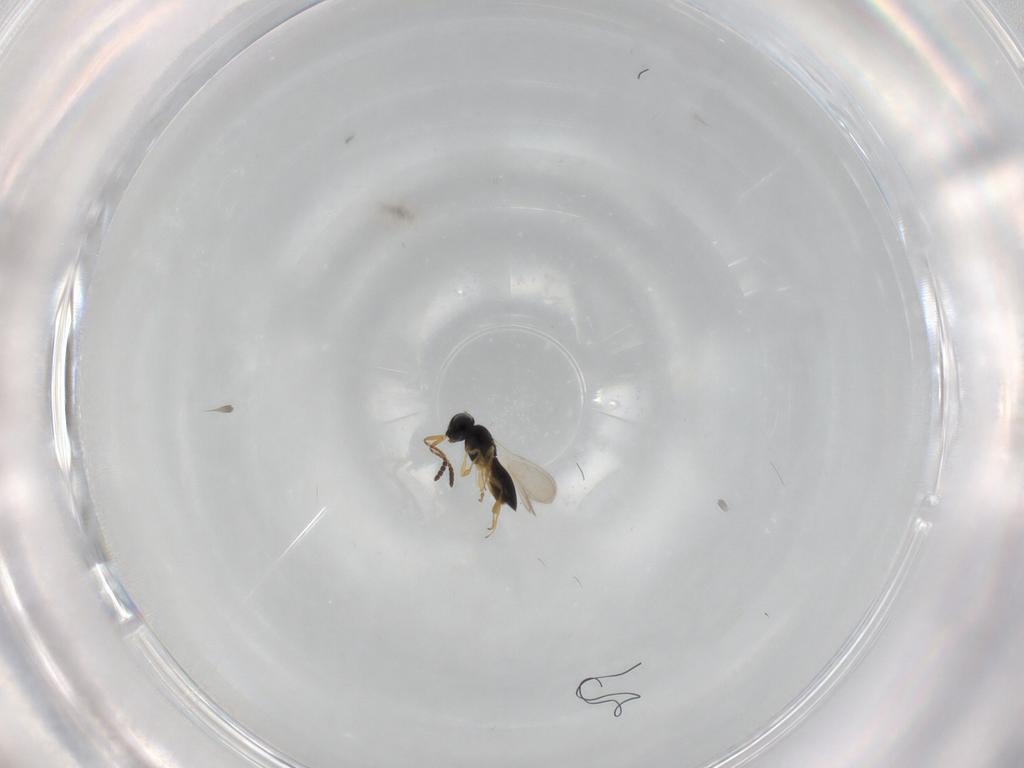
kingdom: Animalia
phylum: Arthropoda
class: Insecta
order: Hymenoptera
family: Scelionidae
